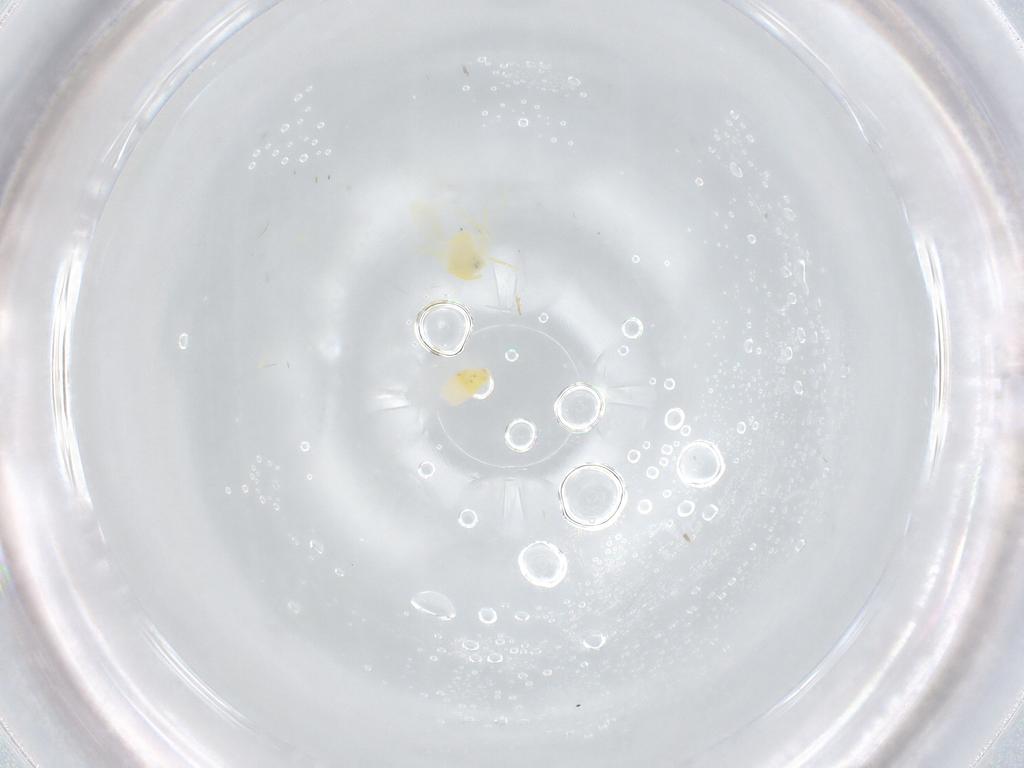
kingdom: Animalia
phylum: Arthropoda
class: Insecta
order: Hemiptera
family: Aleyrodidae
